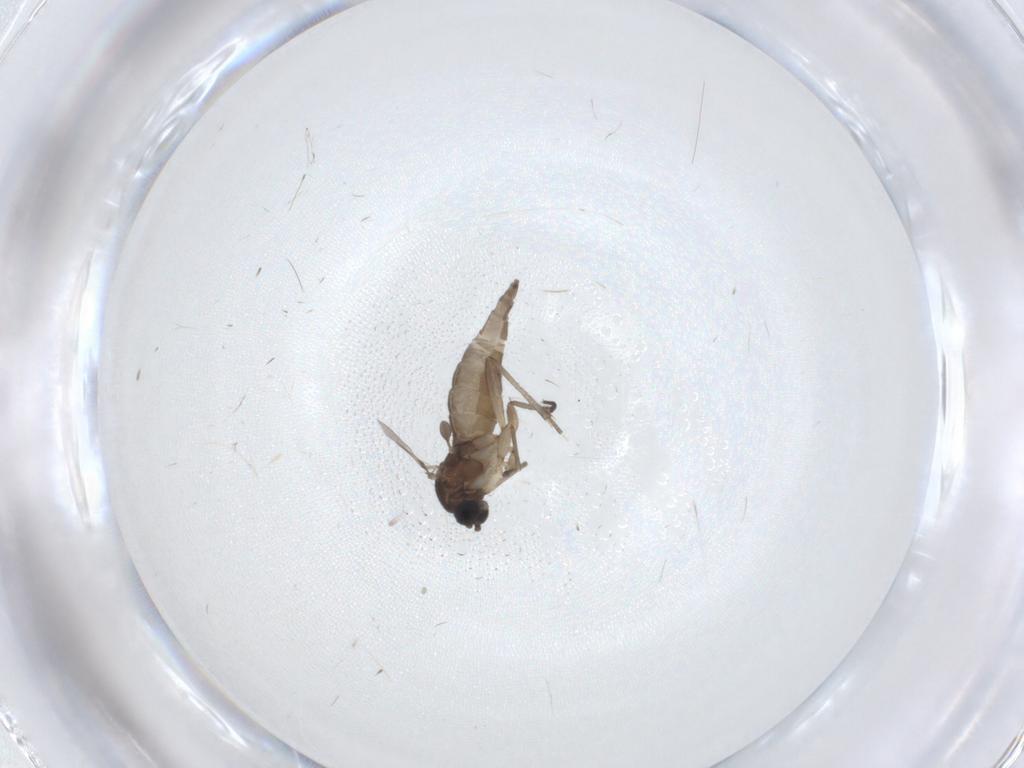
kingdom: Animalia
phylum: Arthropoda
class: Insecta
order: Diptera
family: Sciaridae
